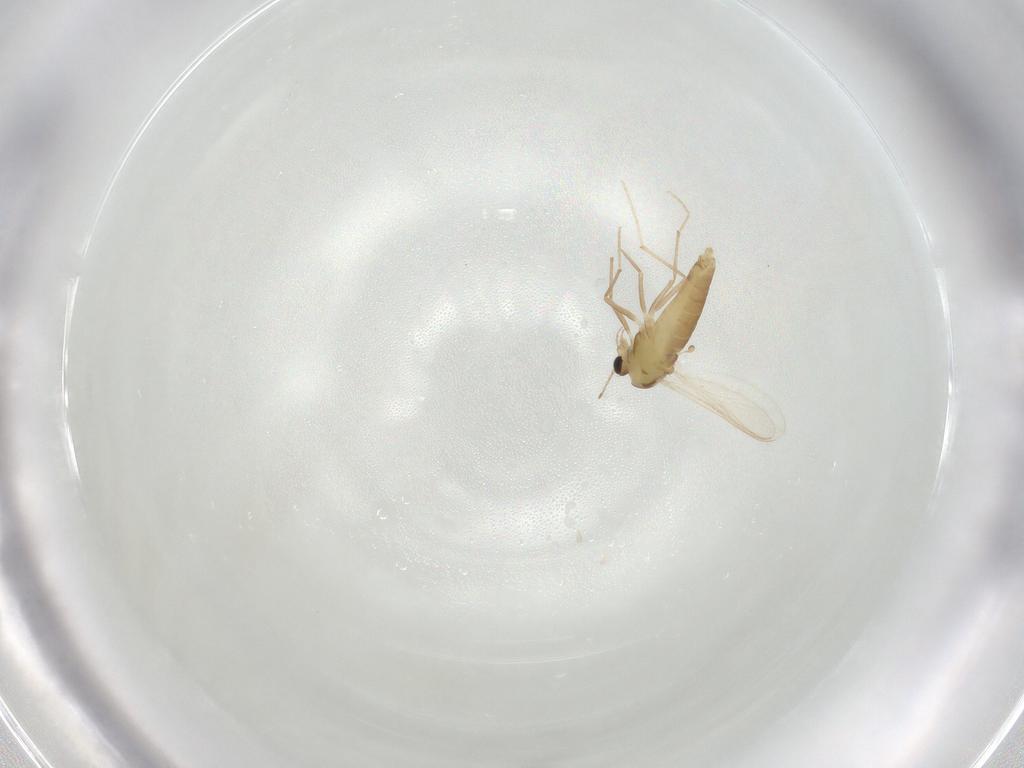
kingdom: Animalia
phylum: Arthropoda
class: Insecta
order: Diptera
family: Chironomidae
